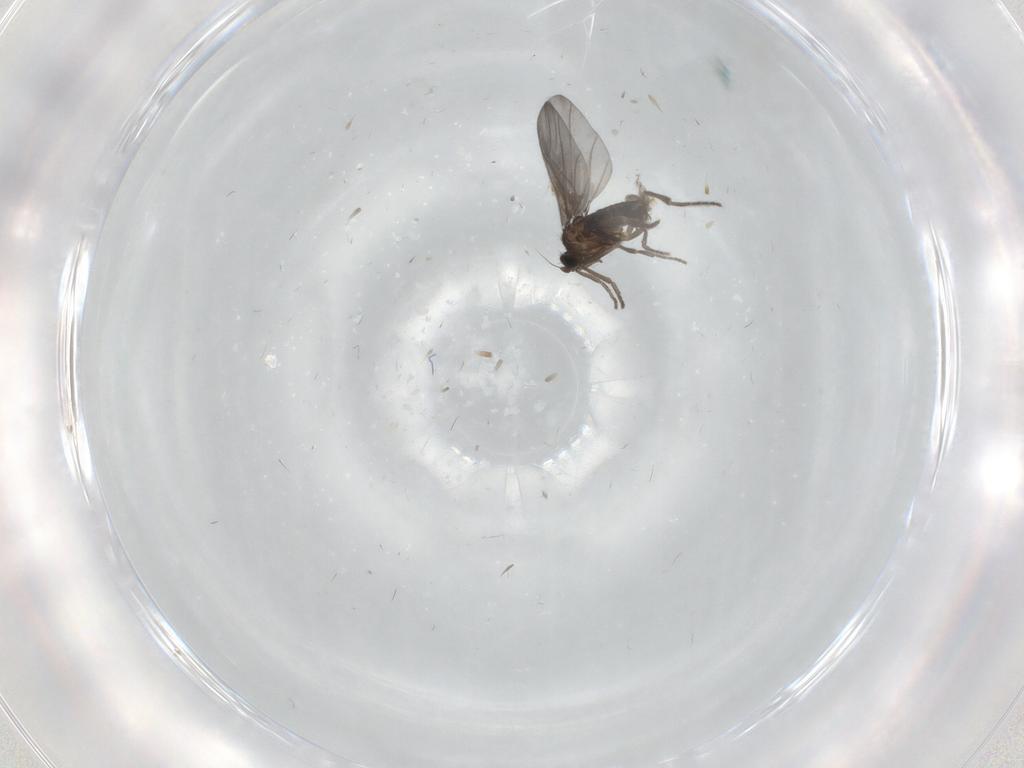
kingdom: Animalia
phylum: Arthropoda
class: Insecta
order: Diptera
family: Phoridae
